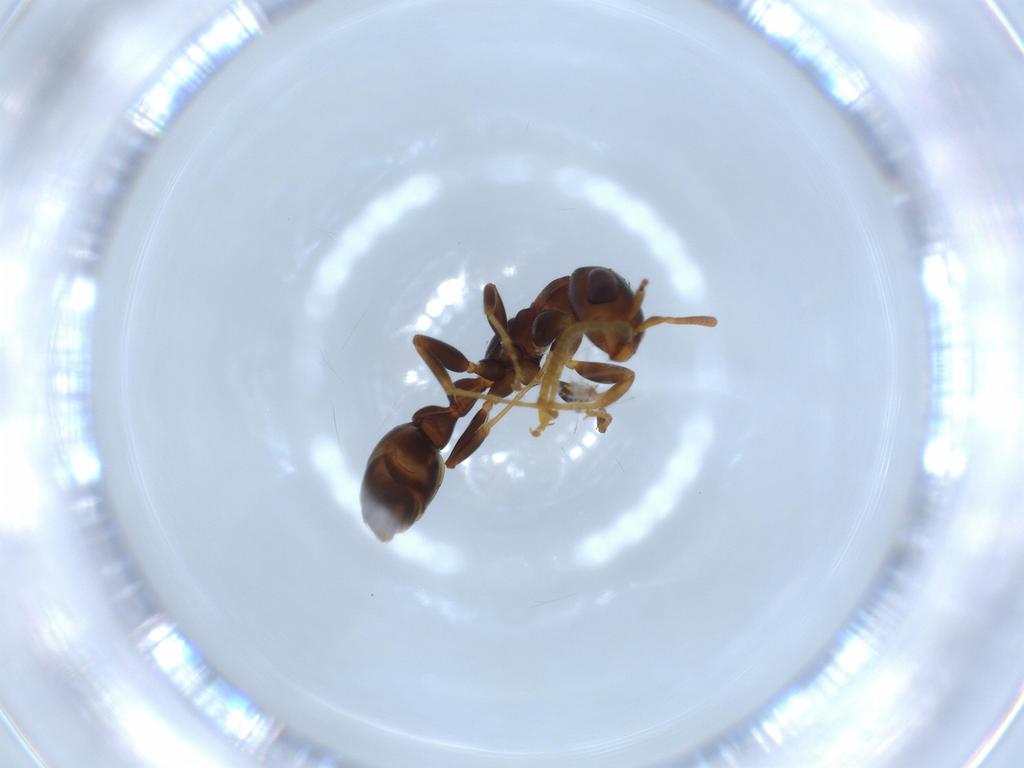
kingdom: Animalia
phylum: Arthropoda
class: Insecta
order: Hymenoptera
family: Formicidae
